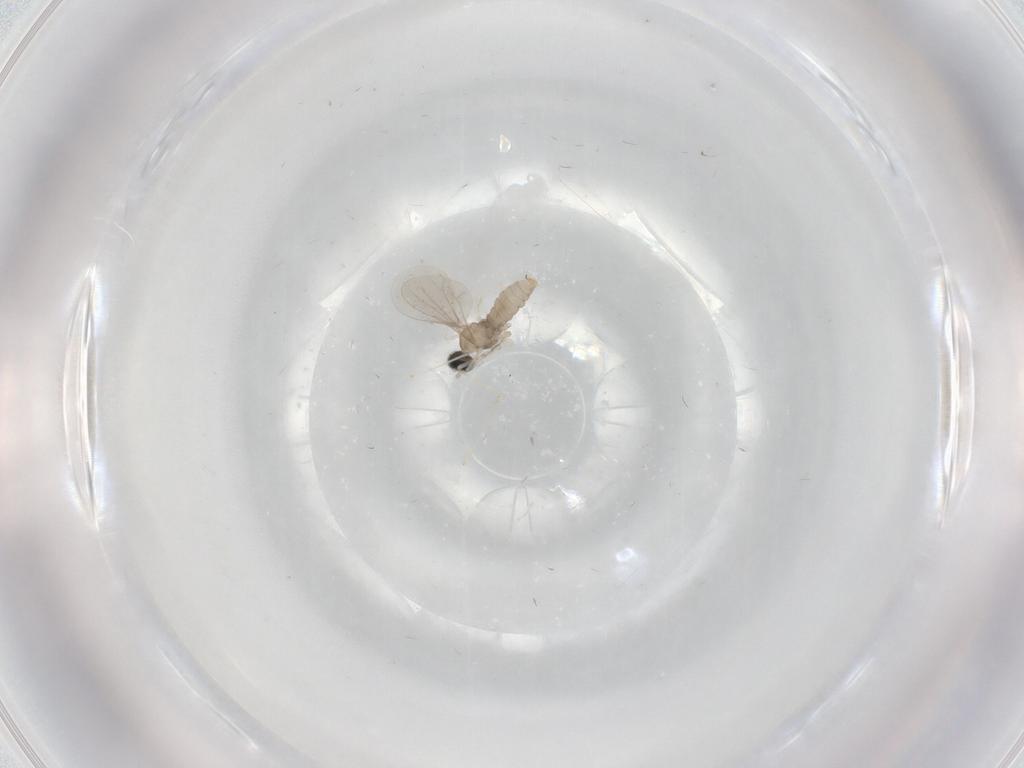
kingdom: Animalia
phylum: Arthropoda
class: Insecta
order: Diptera
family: Cecidomyiidae
